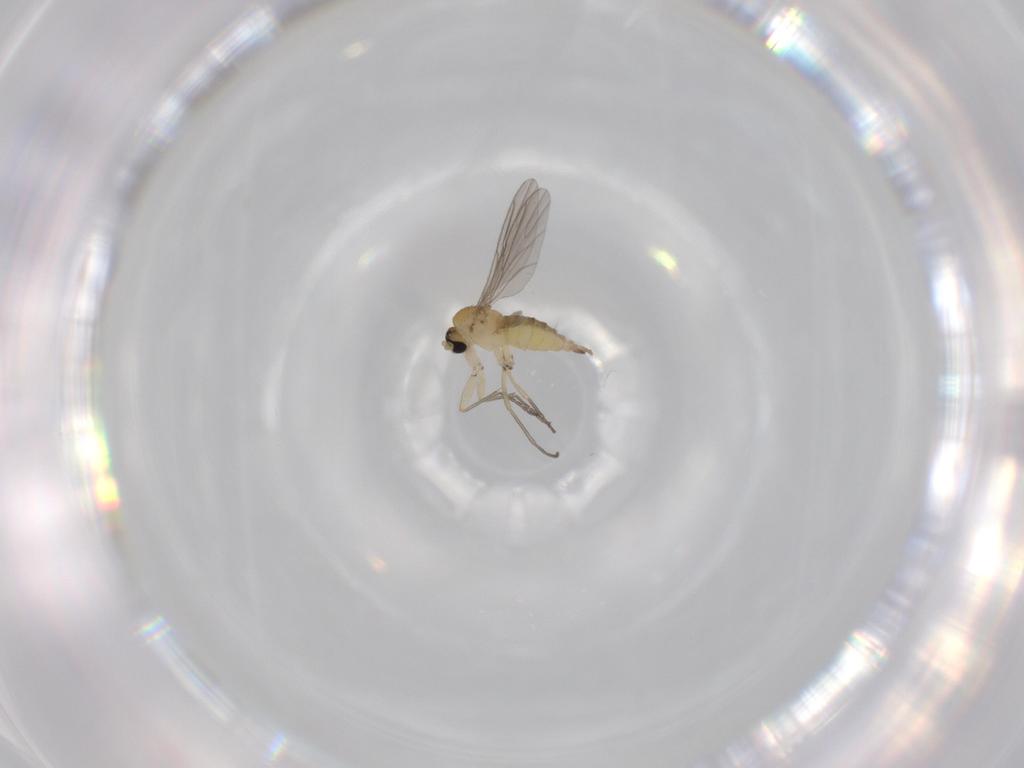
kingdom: Animalia
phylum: Arthropoda
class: Insecta
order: Diptera
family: Sciaridae
